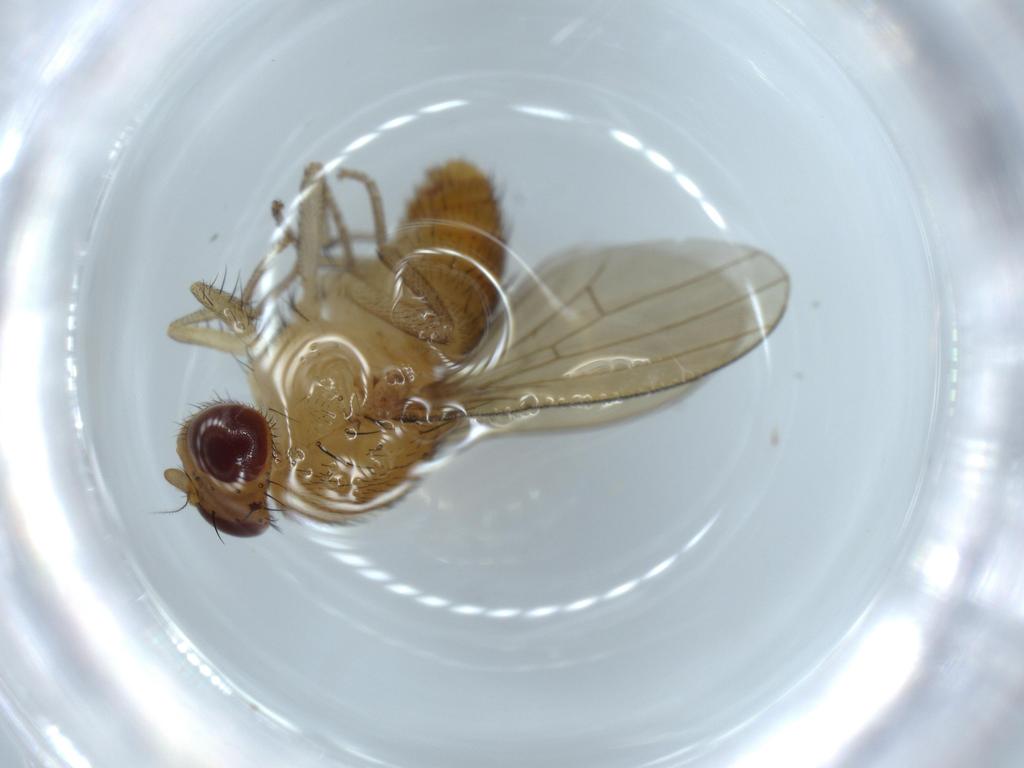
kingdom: Animalia
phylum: Arthropoda
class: Insecta
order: Diptera
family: Lauxaniidae
